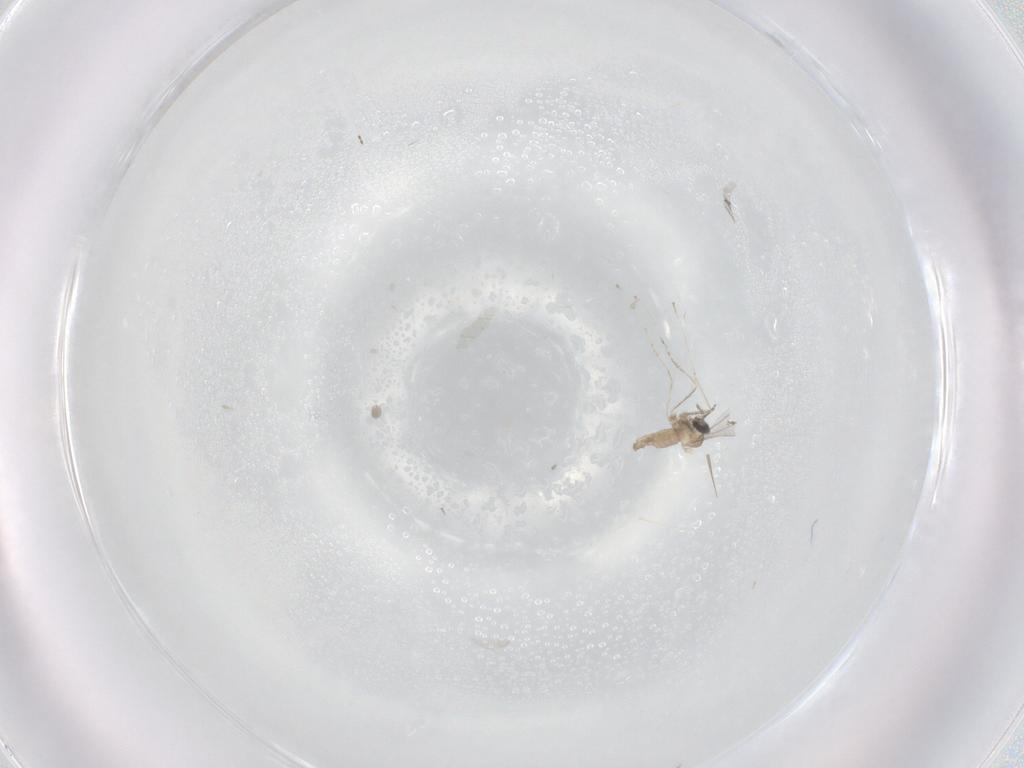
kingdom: Animalia
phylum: Arthropoda
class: Insecta
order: Diptera
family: Cecidomyiidae
